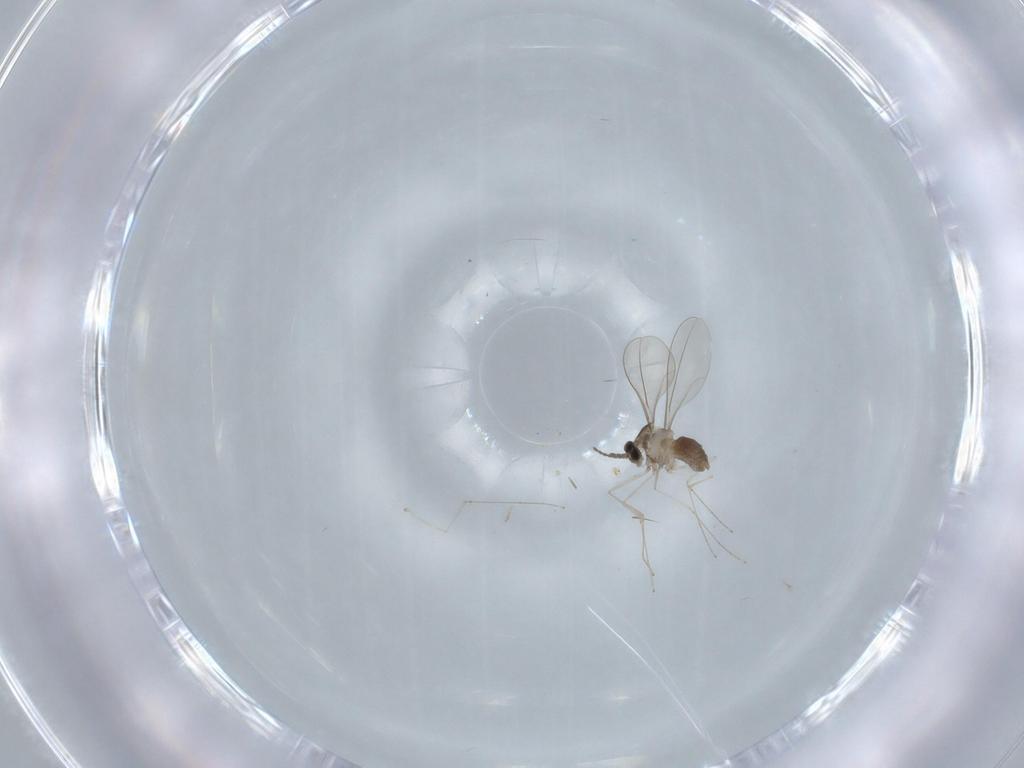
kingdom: Animalia
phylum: Arthropoda
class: Insecta
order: Diptera
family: Cecidomyiidae
